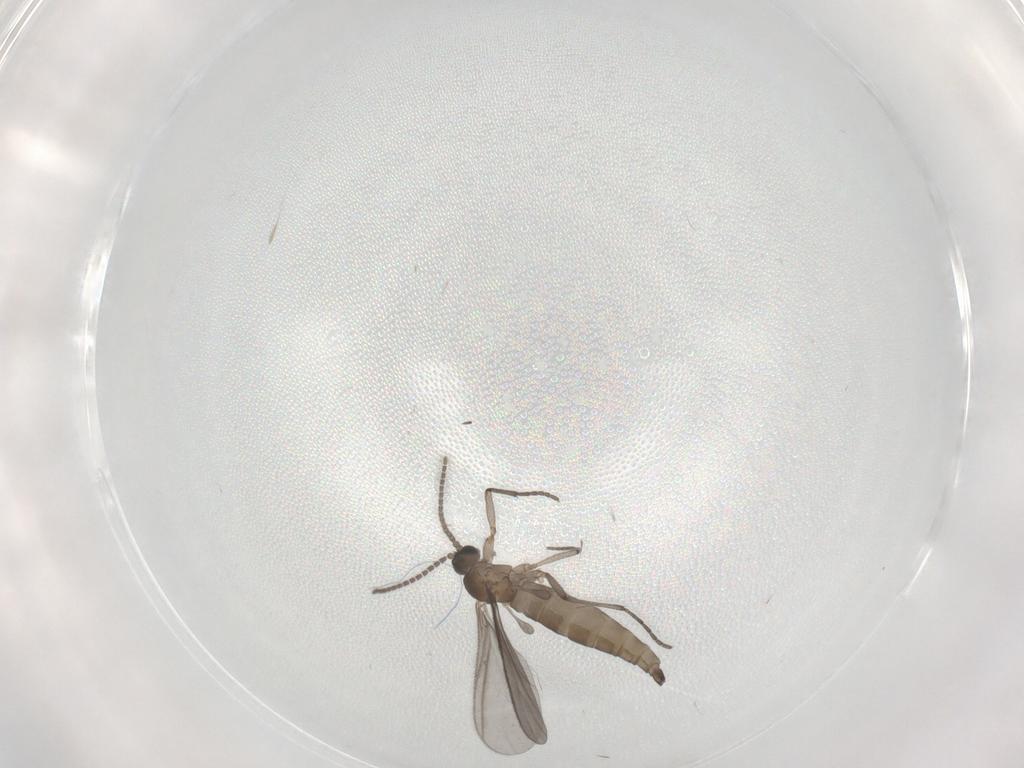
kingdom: Animalia
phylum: Arthropoda
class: Insecta
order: Diptera
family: Sciaridae
